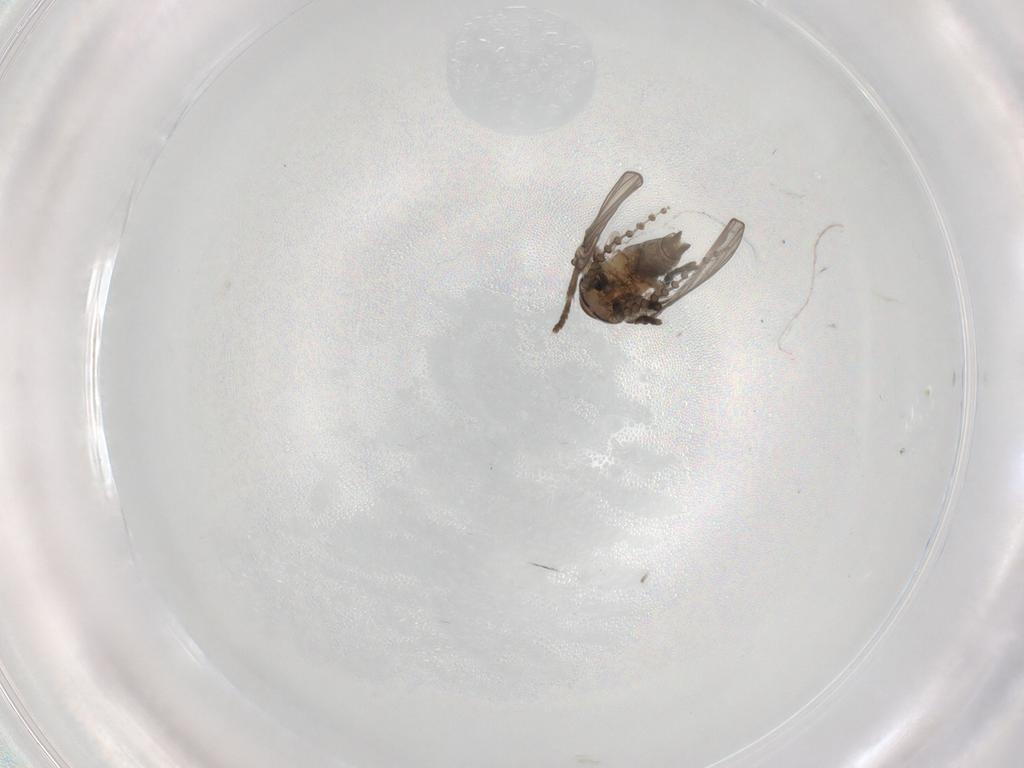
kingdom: Animalia
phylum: Arthropoda
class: Insecta
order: Diptera
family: Psychodidae
